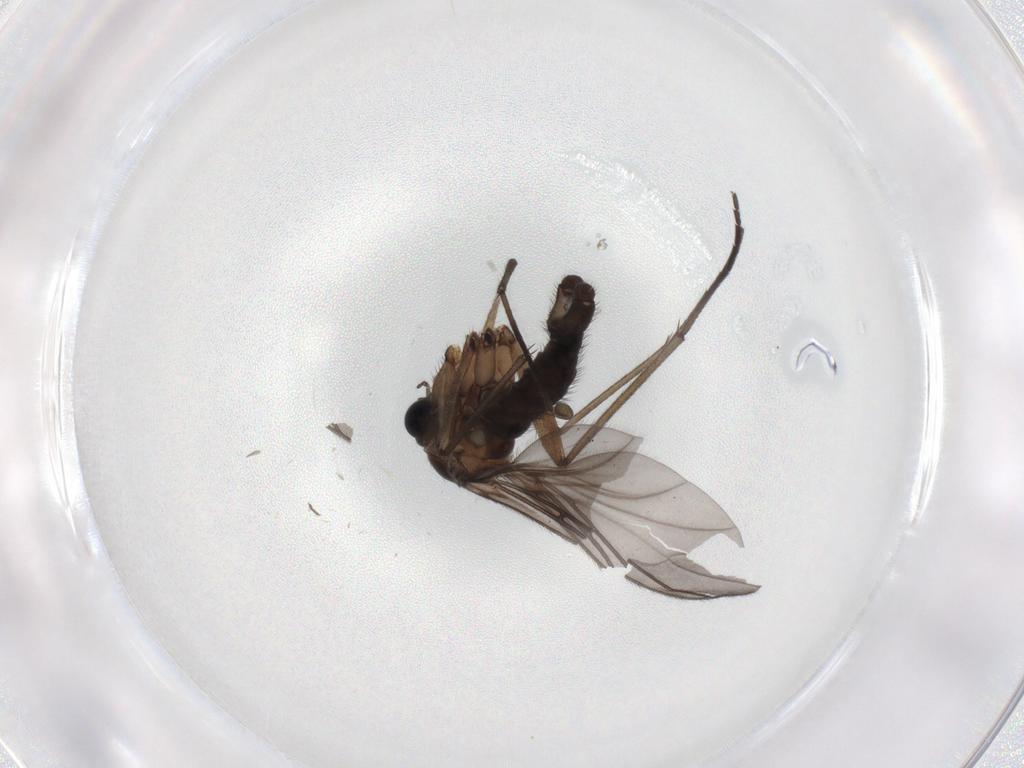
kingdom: Animalia
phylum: Arthropoda
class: Insecta
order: Diptera
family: Sciaridae
